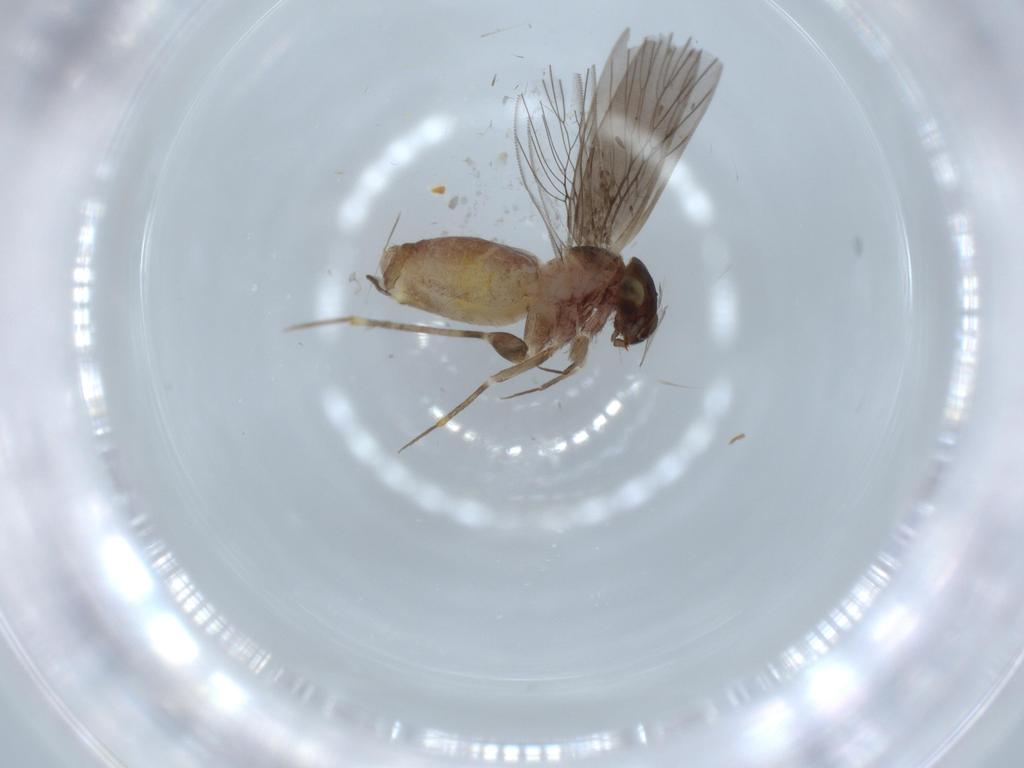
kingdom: Animalia
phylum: Arthropoda
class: Insecta
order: Psocodea
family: Lepidopsocidae
